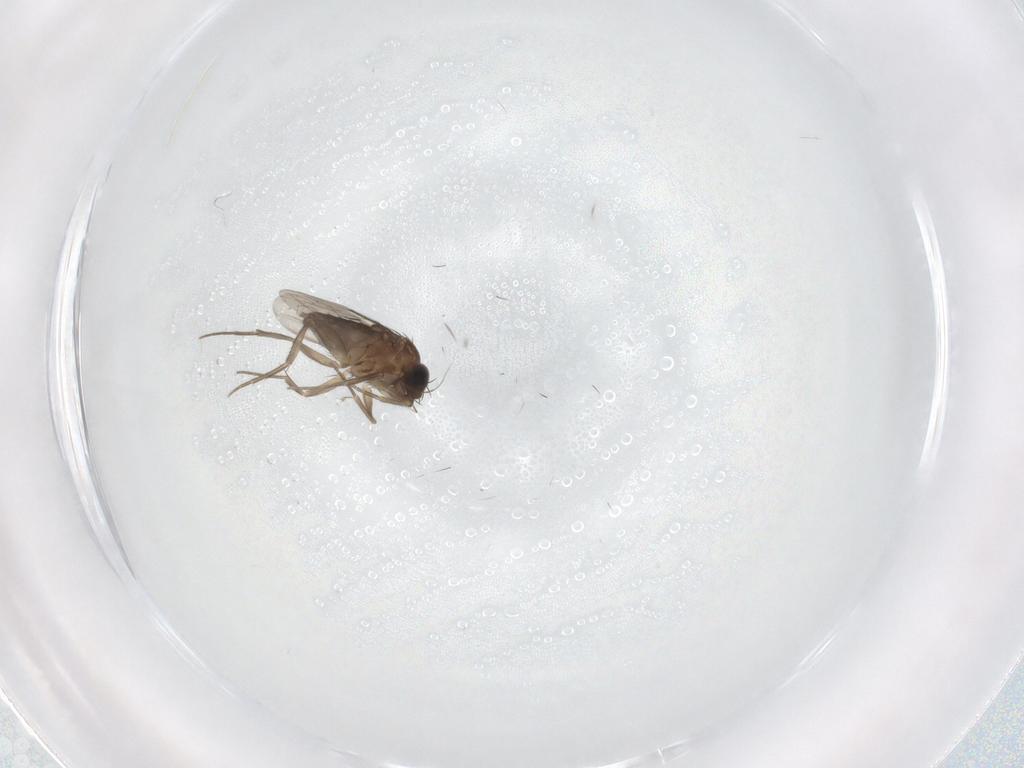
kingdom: Animalia
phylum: Arthropoda
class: Insecta
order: Diptera
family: Phoridae
